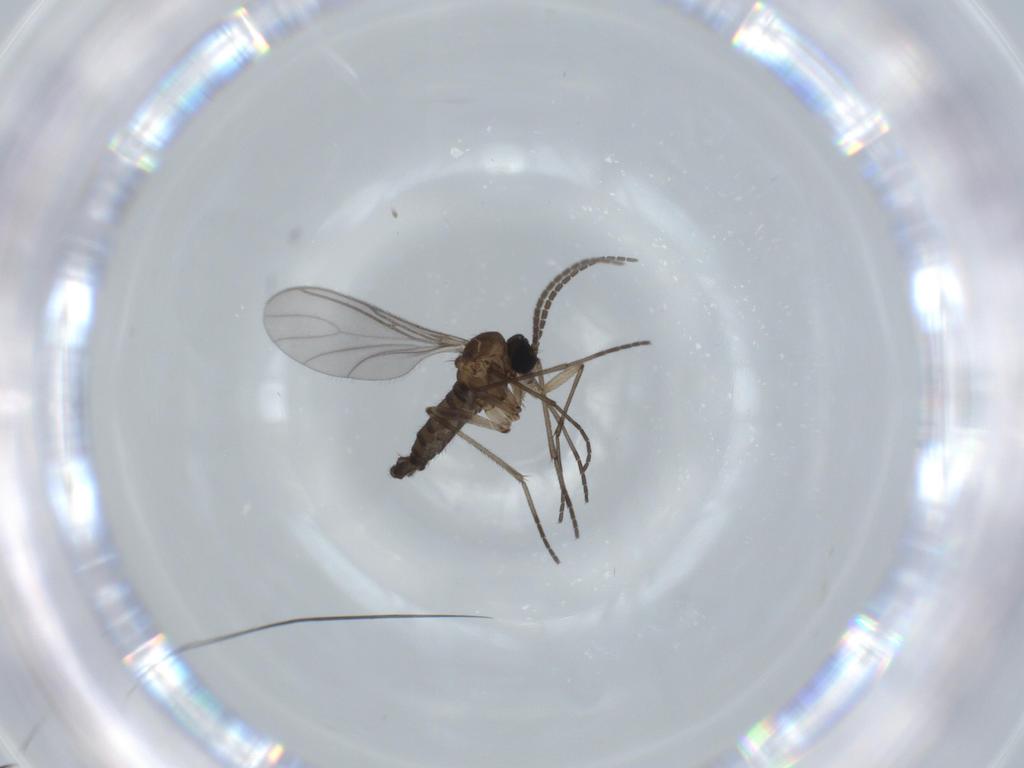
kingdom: Animalia
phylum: Arthropoda
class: Insecta
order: Diptera
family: Sciaridae
